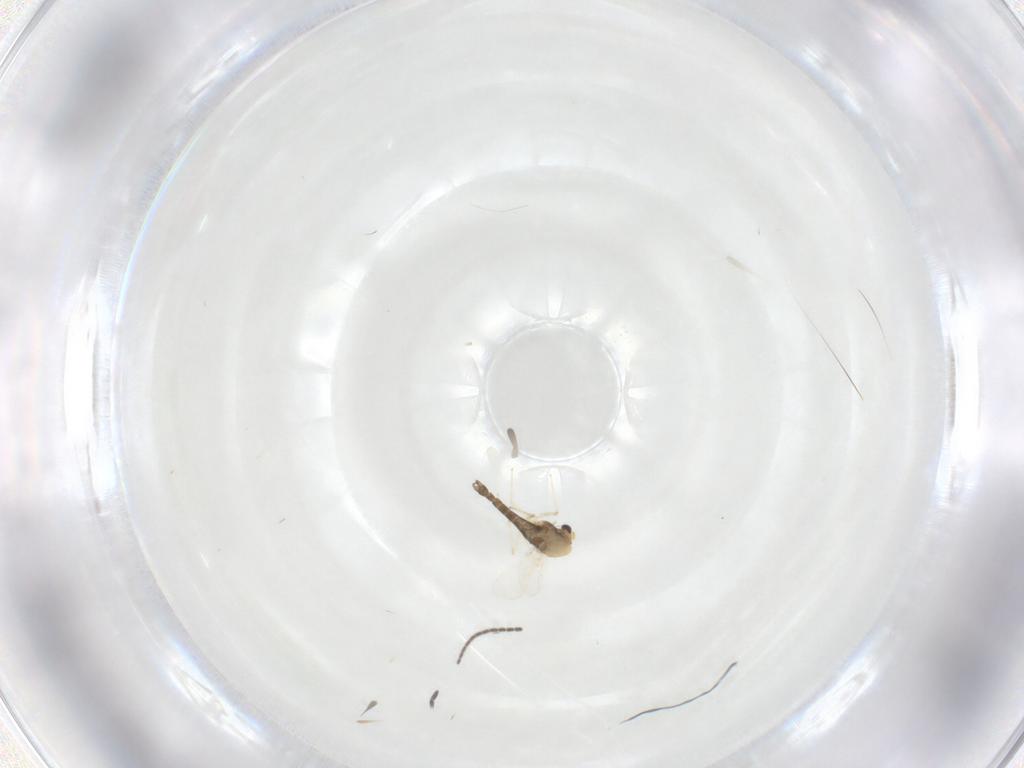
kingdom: Animalia
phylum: Arthropoda
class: Insecta
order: Diptera
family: Chironomidae
